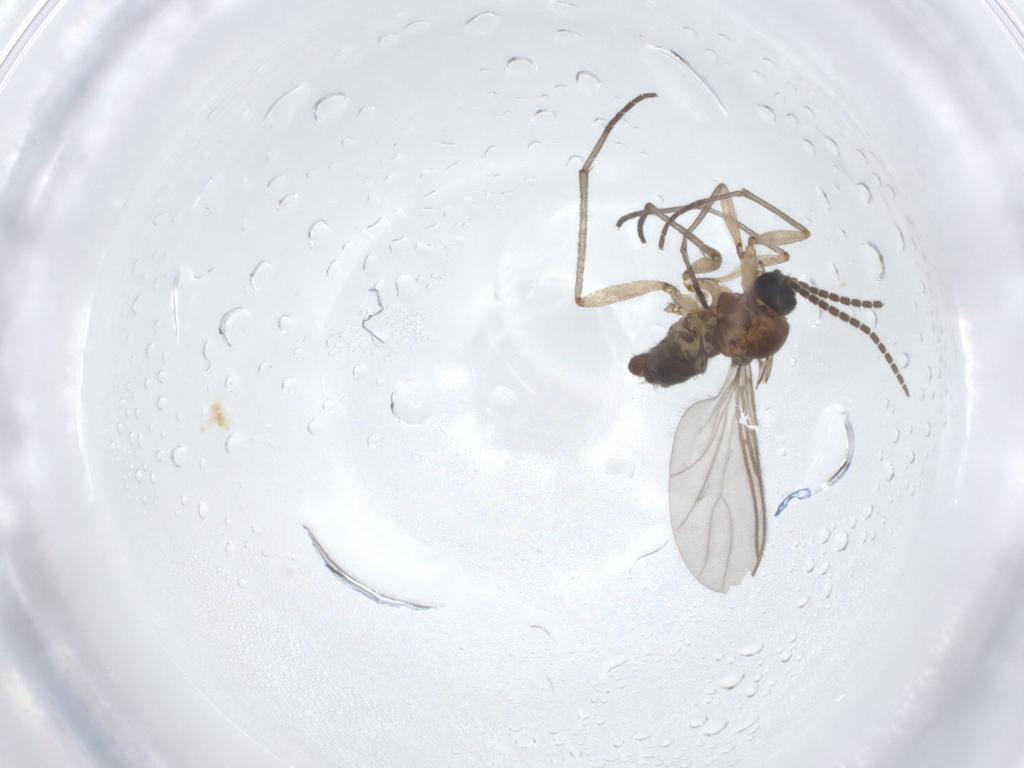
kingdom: Animalia
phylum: Arthropoda
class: Insecta
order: Diptera
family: Sciaridae
